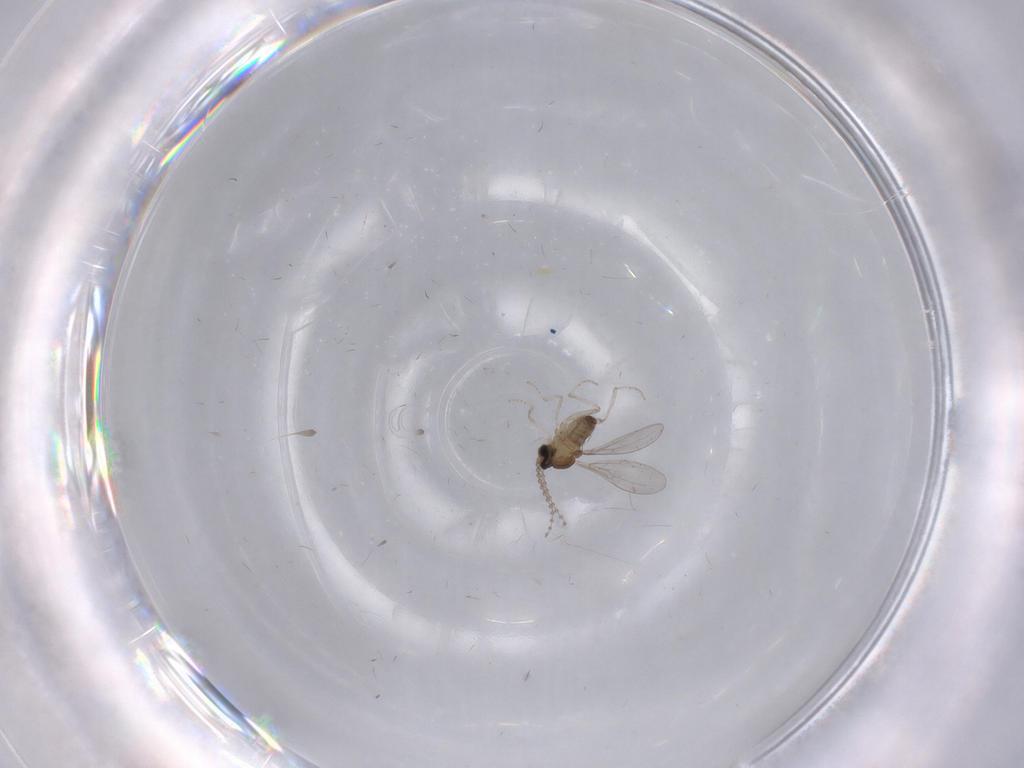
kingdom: Animalia
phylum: Arthropoda
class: Insecta
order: Diptera
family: Cecidomyiidae
